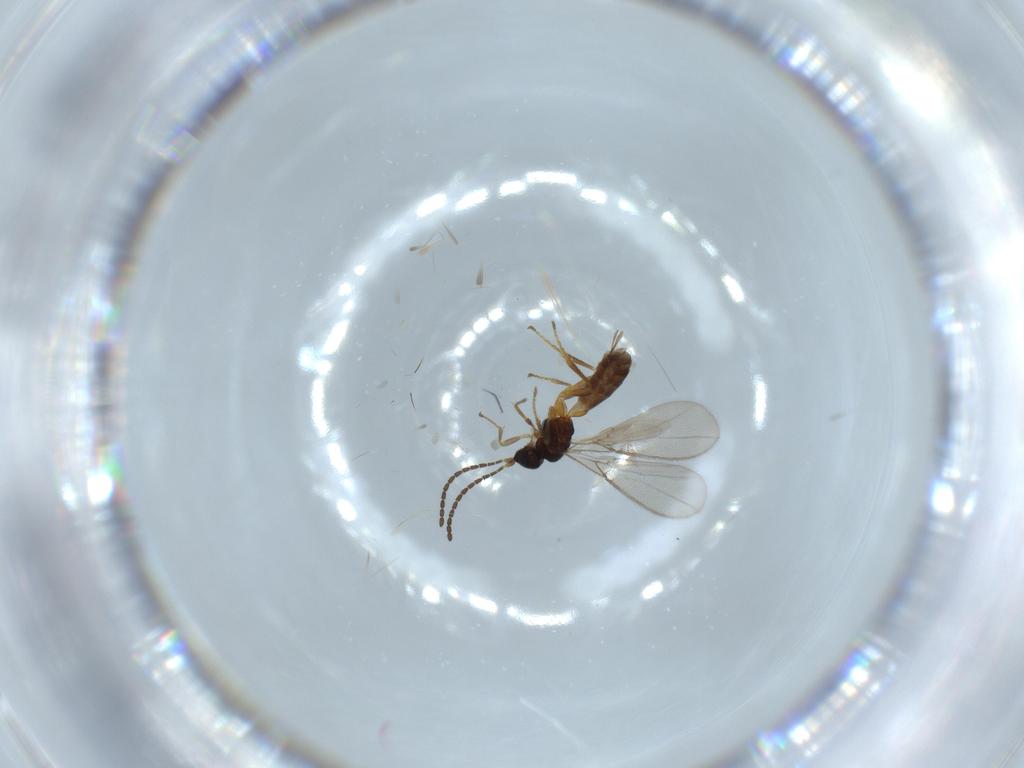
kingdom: Animalia
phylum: Arthropoda
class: Insecta
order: Hymenoptera
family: Braconidae
